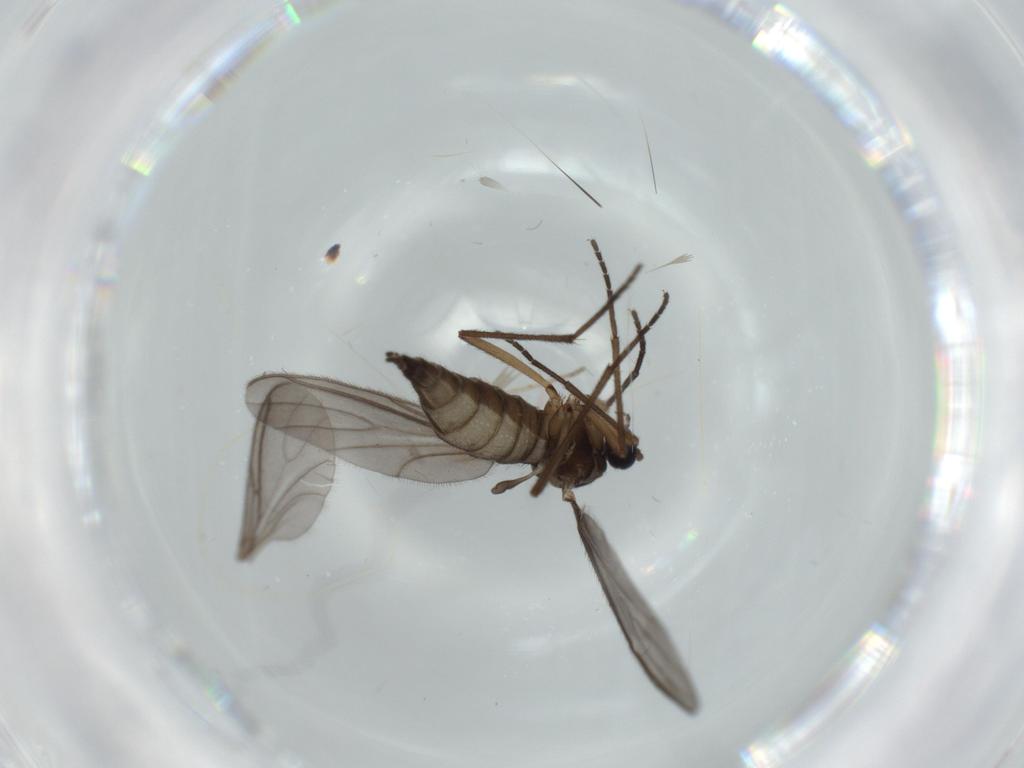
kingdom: Animalia
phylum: Arthropoda
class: Insecta
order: Diptera
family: Sciaridae
